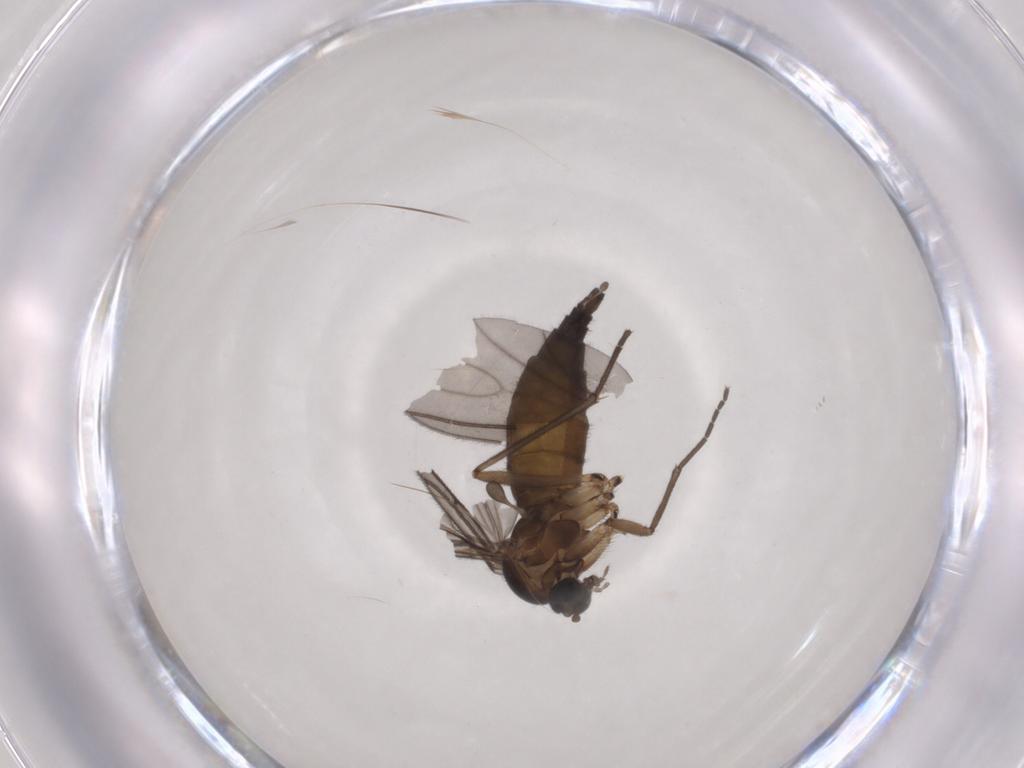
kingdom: Animalia
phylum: Arthropoda
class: Insecta
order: Diptera
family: Sciaridae
